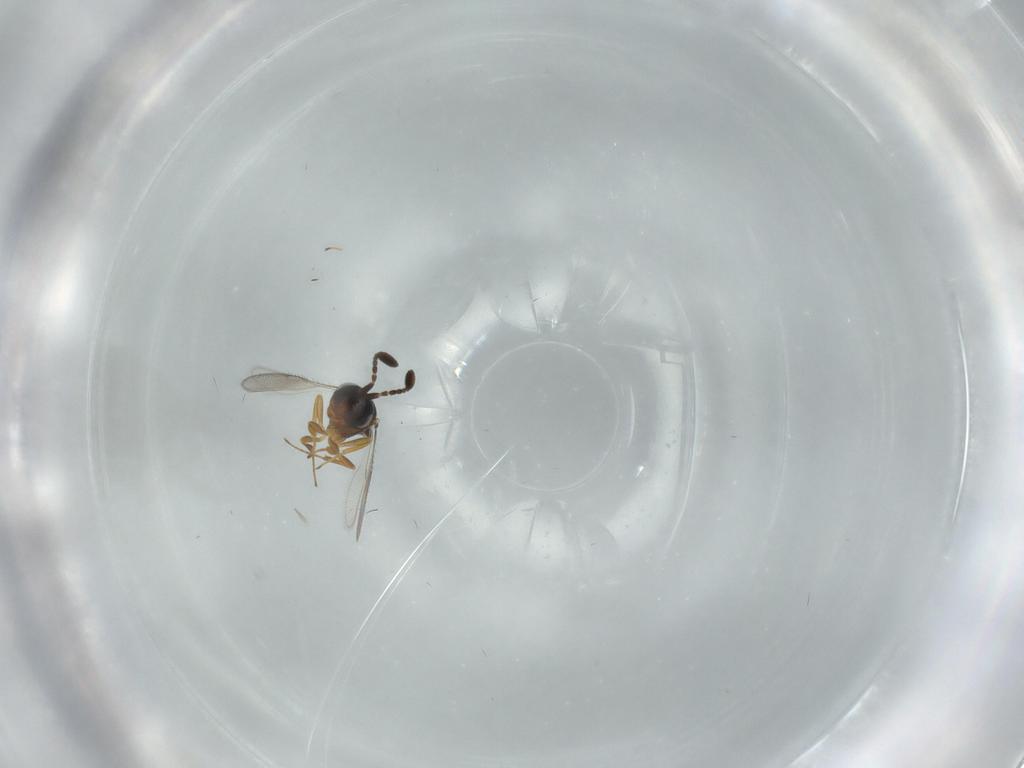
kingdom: Animalia
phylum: Arthropoda
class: Insecta
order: Hymenoptera
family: Scelionidae
